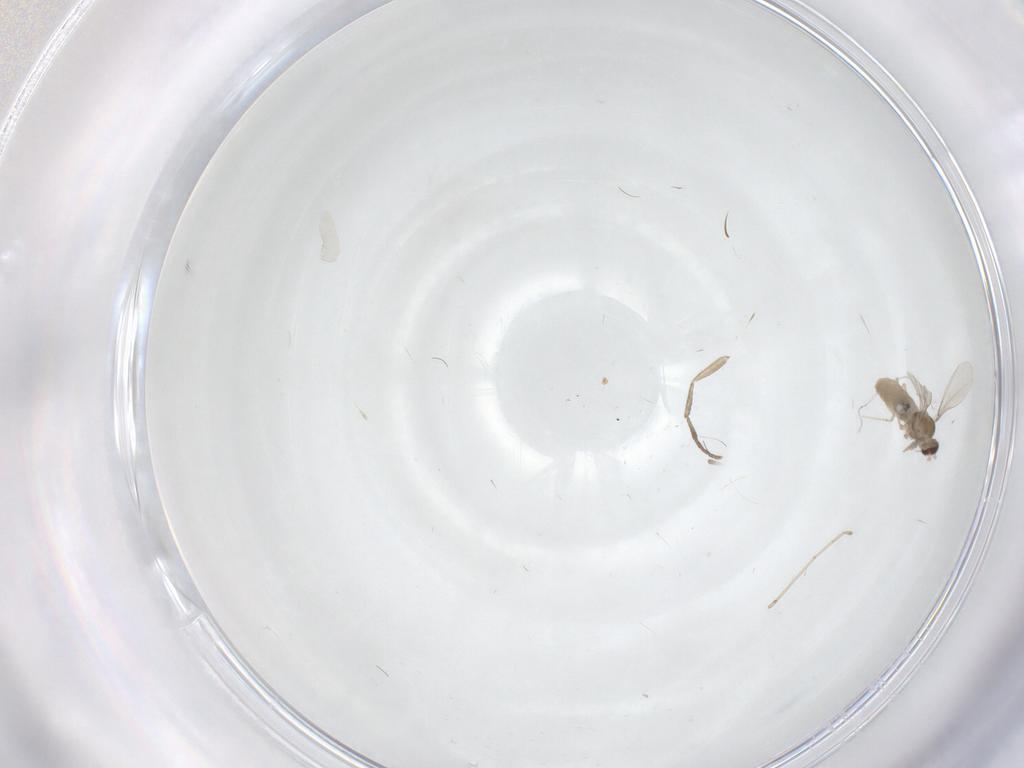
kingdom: Animalia
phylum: Arthropoda
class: Insecta
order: Diptera
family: Cecidomyiidae
